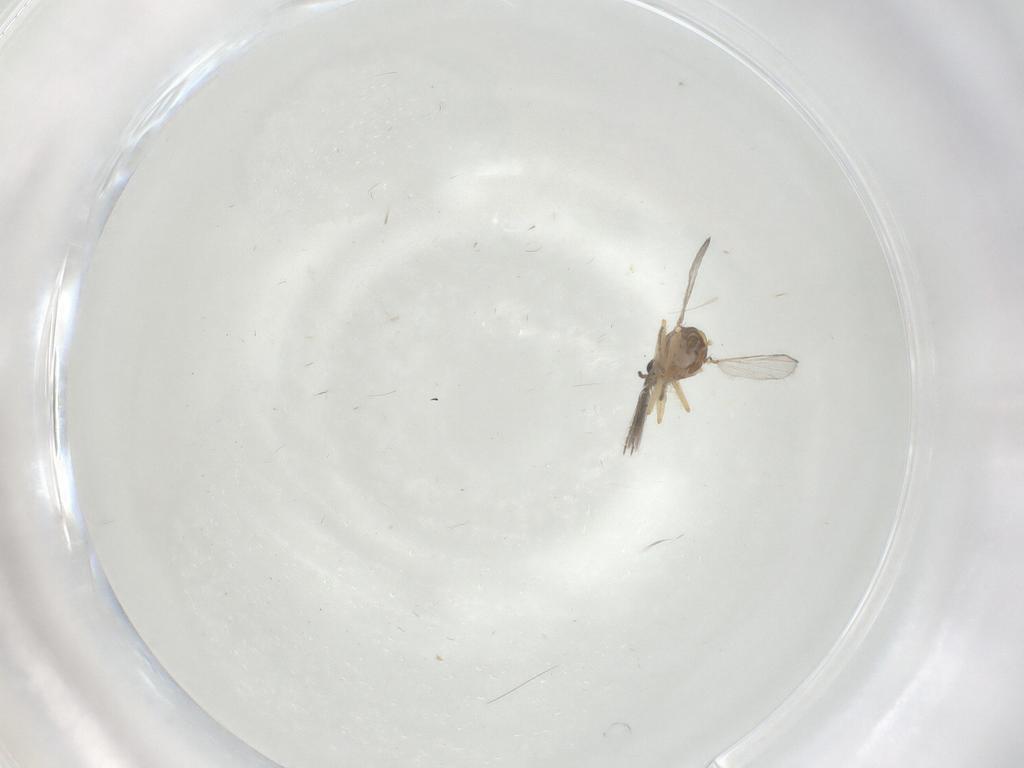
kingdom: Animalia
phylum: Arthropoda
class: Insecta
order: Diptera
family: Ceratopogonidae
